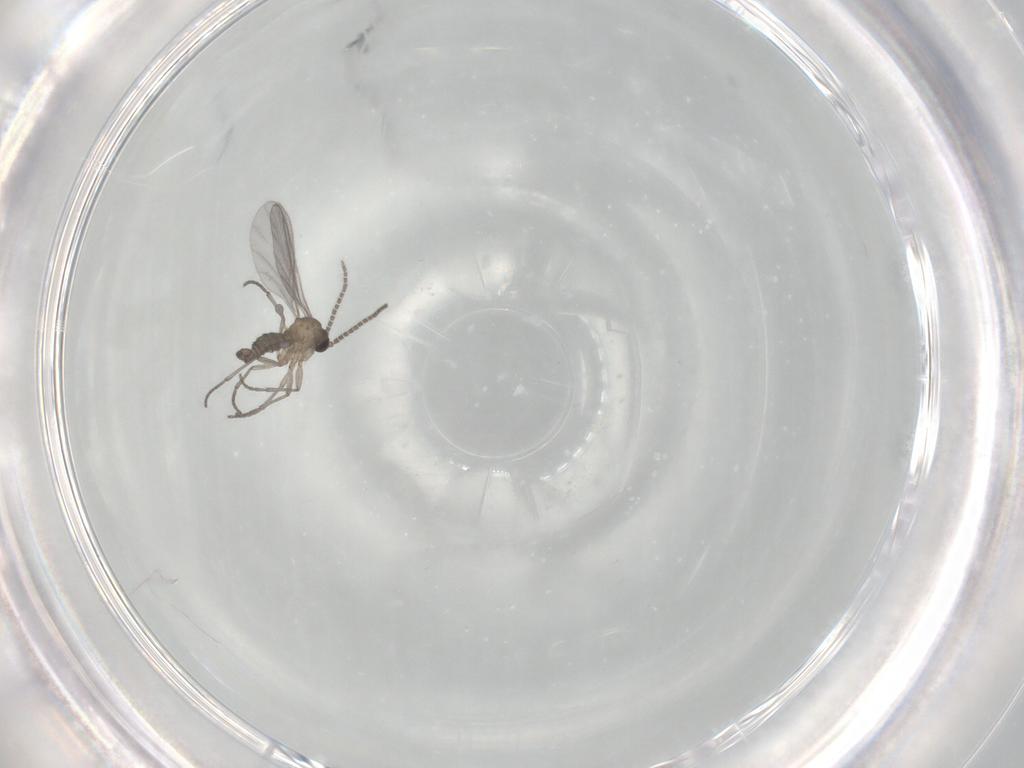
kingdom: Animalia
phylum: Arthropoda
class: Insecta
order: Diptera
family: Sciaridae
